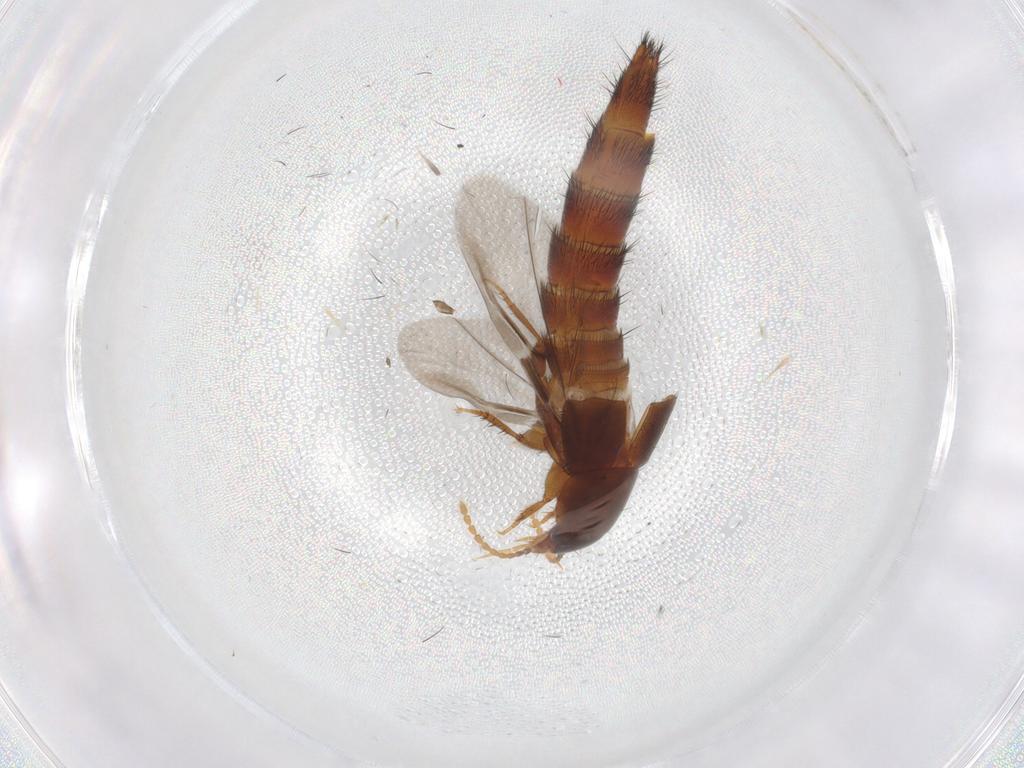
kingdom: Animalia
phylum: Arthropoda
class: Insecta
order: Coleoptera
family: Staphylinidae
